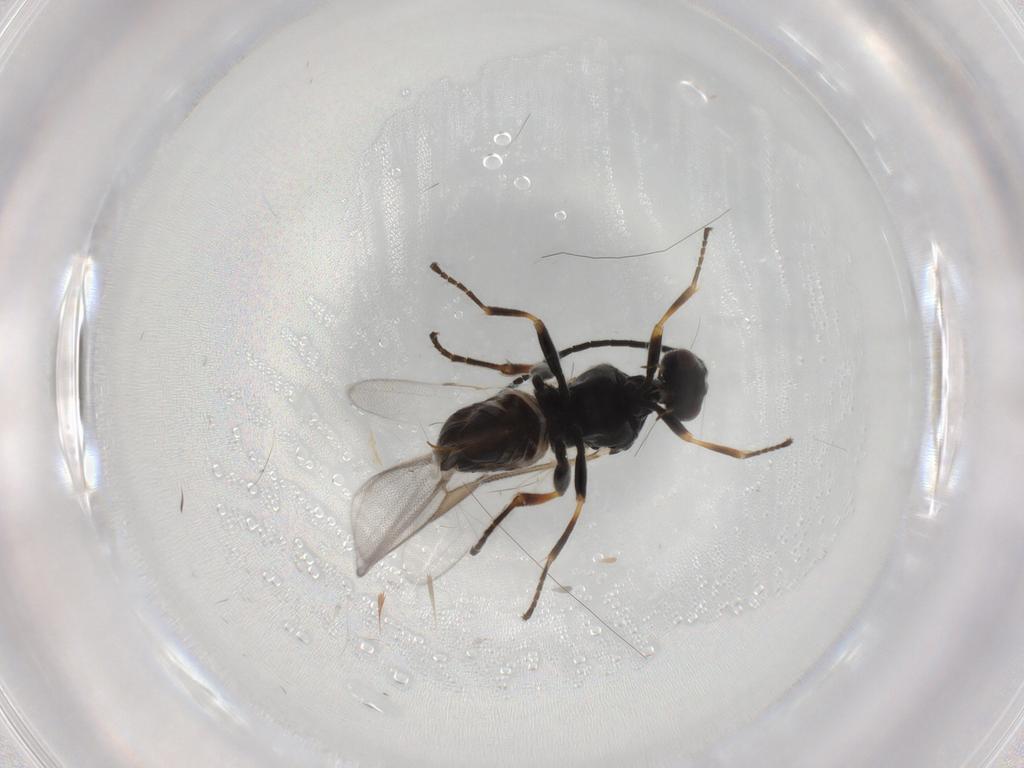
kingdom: Animalia
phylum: Arthropoda
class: Insecta
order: Hymenoptera
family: Braconidae
